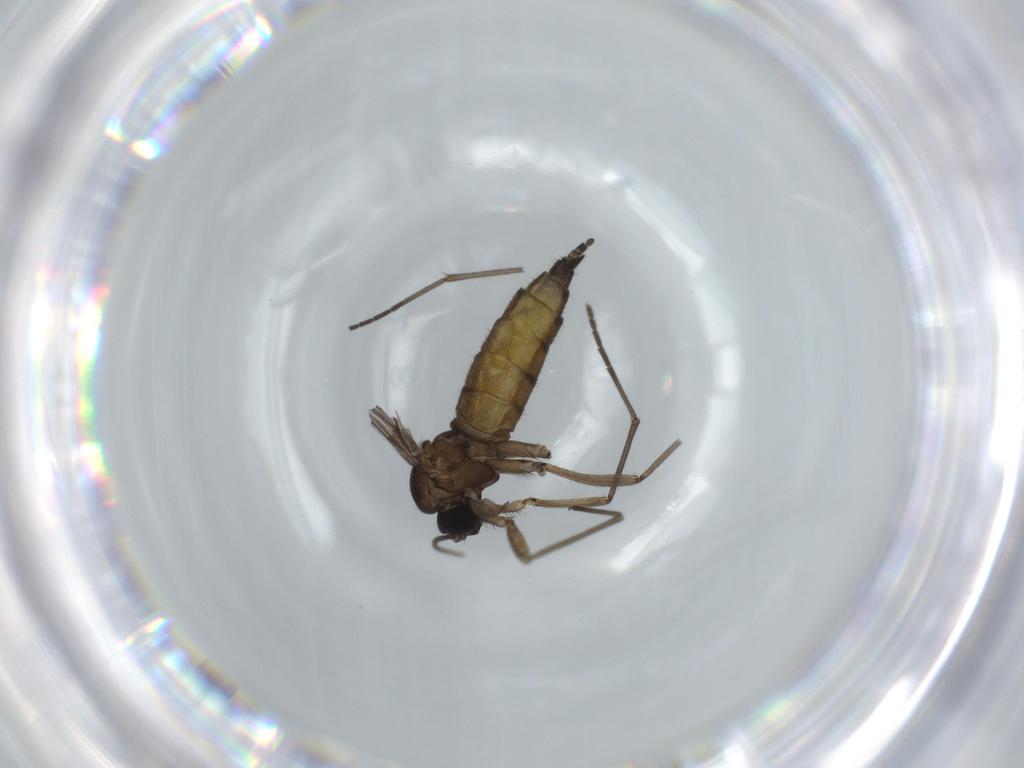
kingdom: Animalia
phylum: Arthropoda
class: Insecta
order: Diptera
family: Sciaridae
